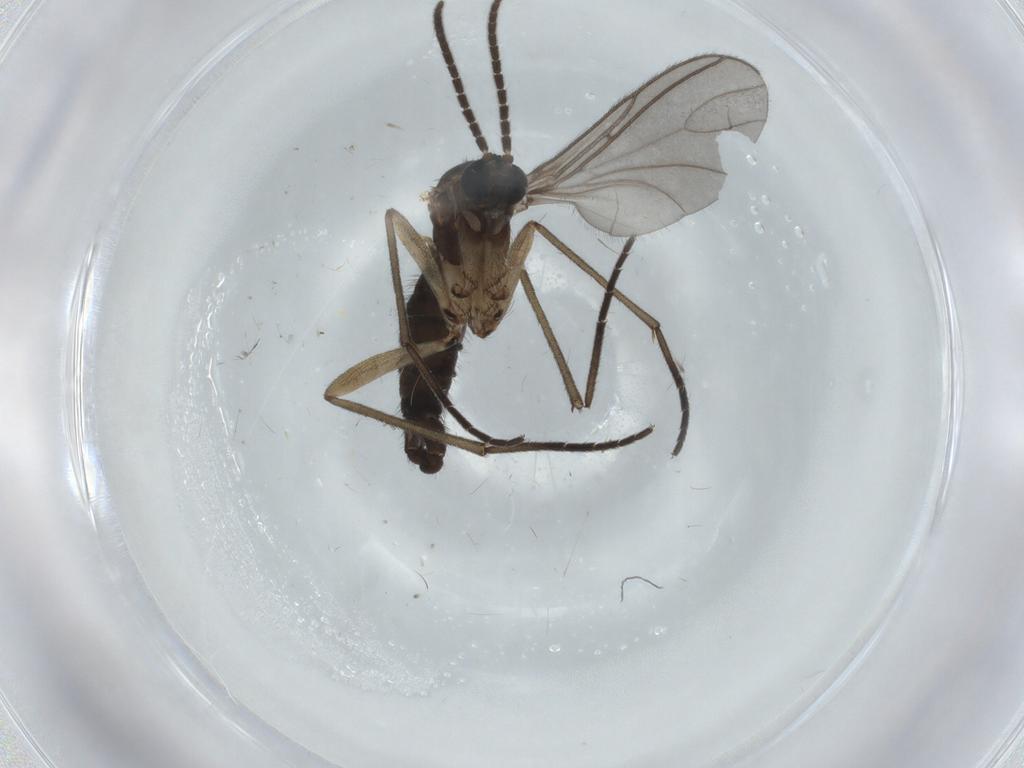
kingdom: Animalia
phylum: Arthropoda
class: Insecta
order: Diptera
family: Sciaridae
